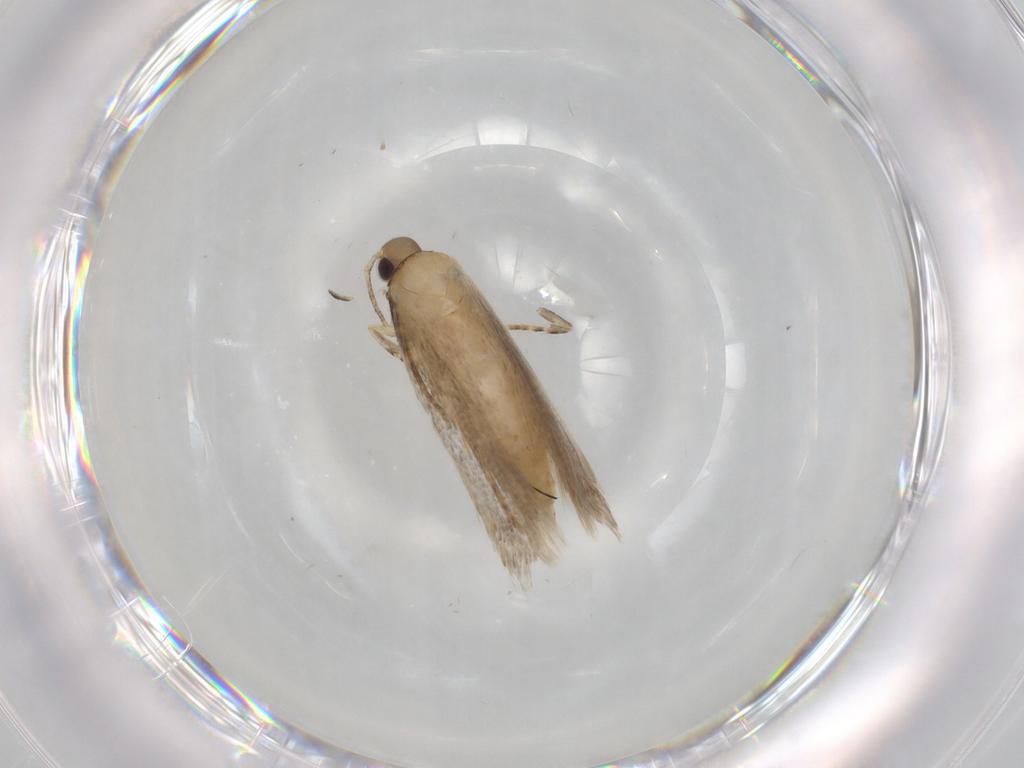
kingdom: Animalia
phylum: Arthropoda
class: Insecta
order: Lepidoptera
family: Autostichidae
